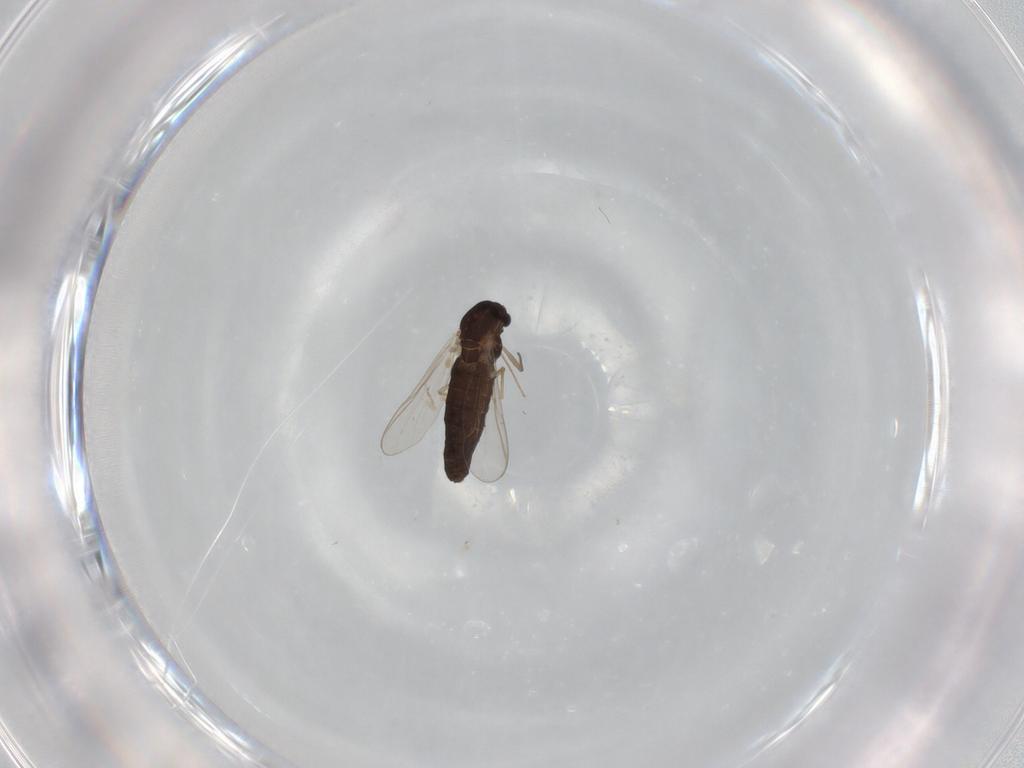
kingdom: Animalia
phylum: Arthropoda
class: Insecta
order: Diptera
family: Chironomidae
